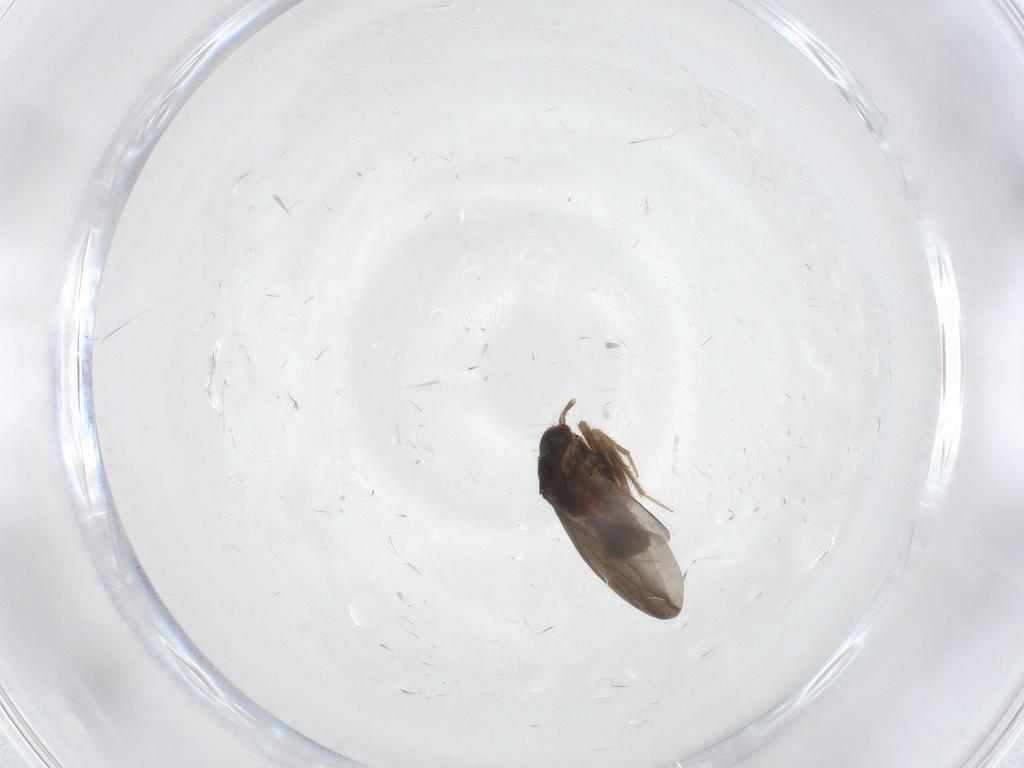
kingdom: Animalia
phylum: Arthropoda
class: Insecta
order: Hemiptera
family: Ceratocombidae
